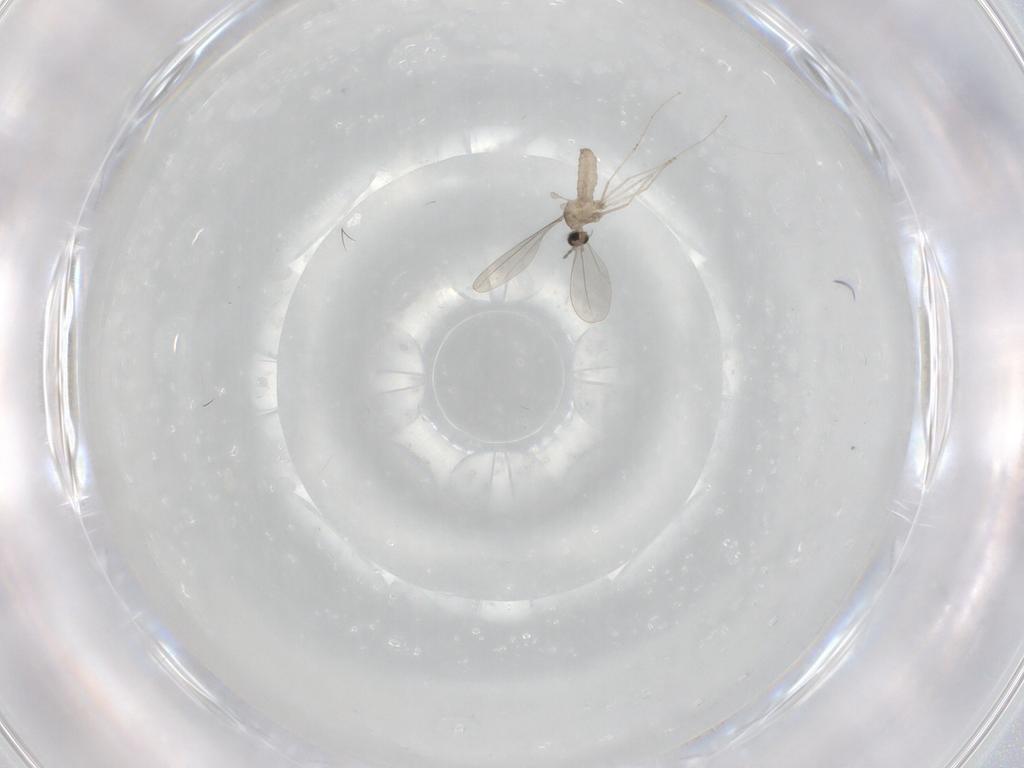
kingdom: Animalia
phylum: Arthropoda
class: Insecta
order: Diptera
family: Cecidomyiidae
